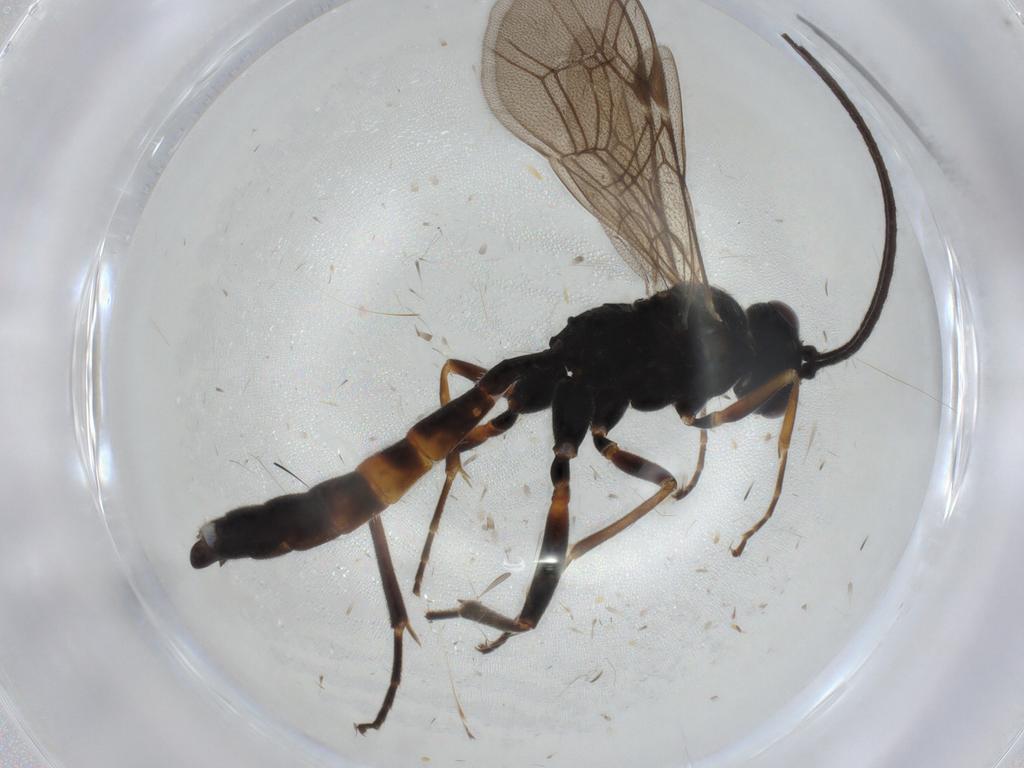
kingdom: Animalia
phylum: Arthropoda
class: Insecta
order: Hymenoptera
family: Ichneumonidae
